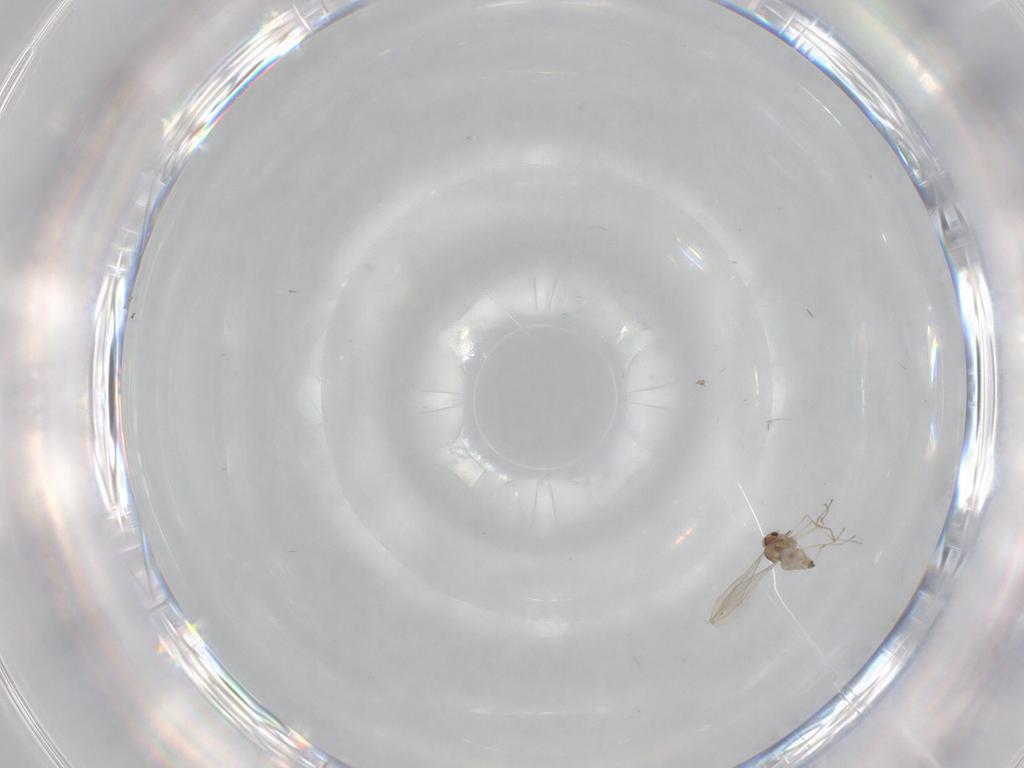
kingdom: Animalia
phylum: Arthropoda
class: Insecta
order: Diptera
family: Cecidomyiidae
